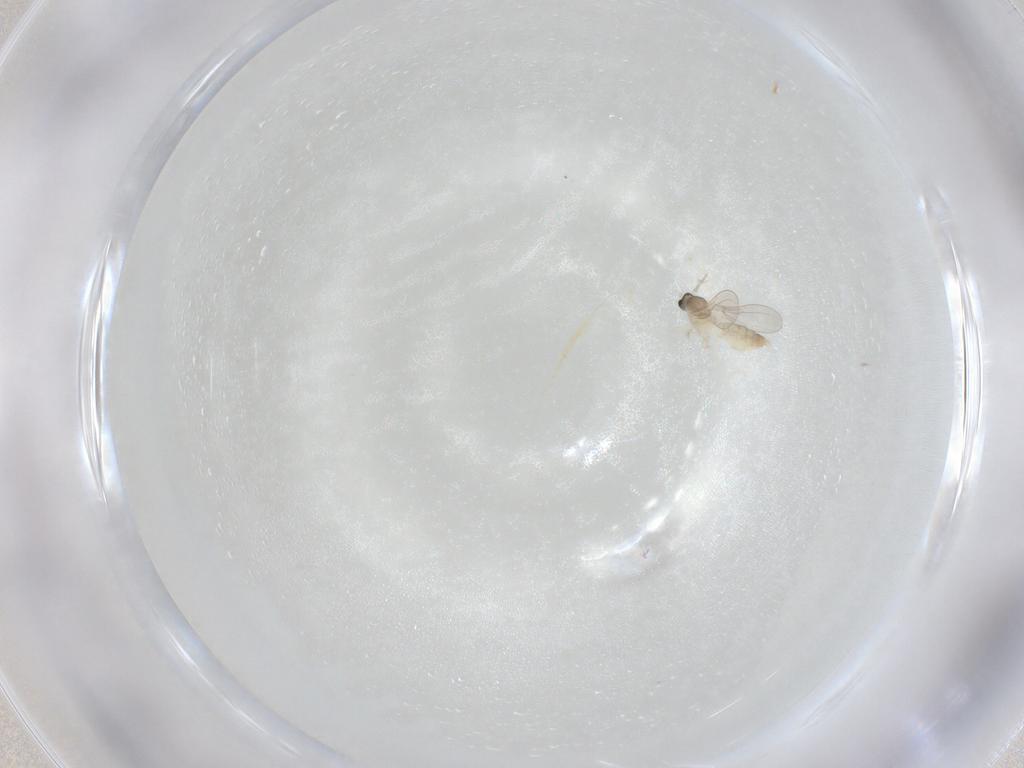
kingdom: Animalia
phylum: Arthropoda
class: Insecta
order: Diptera
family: Cecidomyiidae
